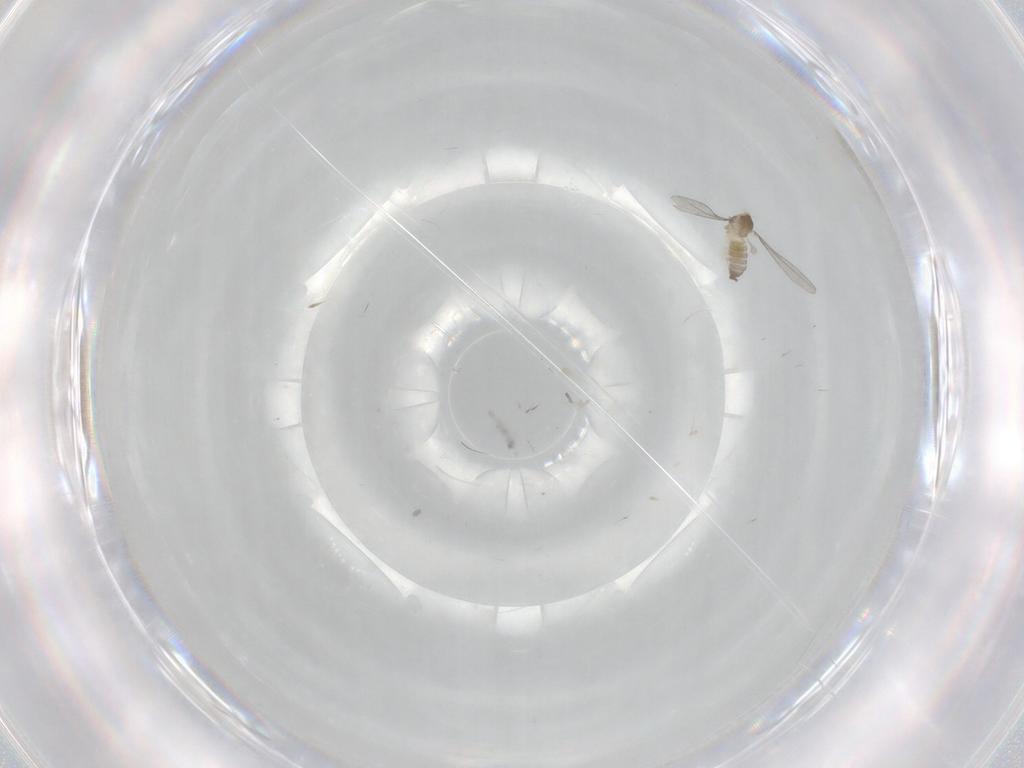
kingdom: Animalia
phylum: Arthropoda
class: Insecta
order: Diptera
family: Cecidomyiidae
